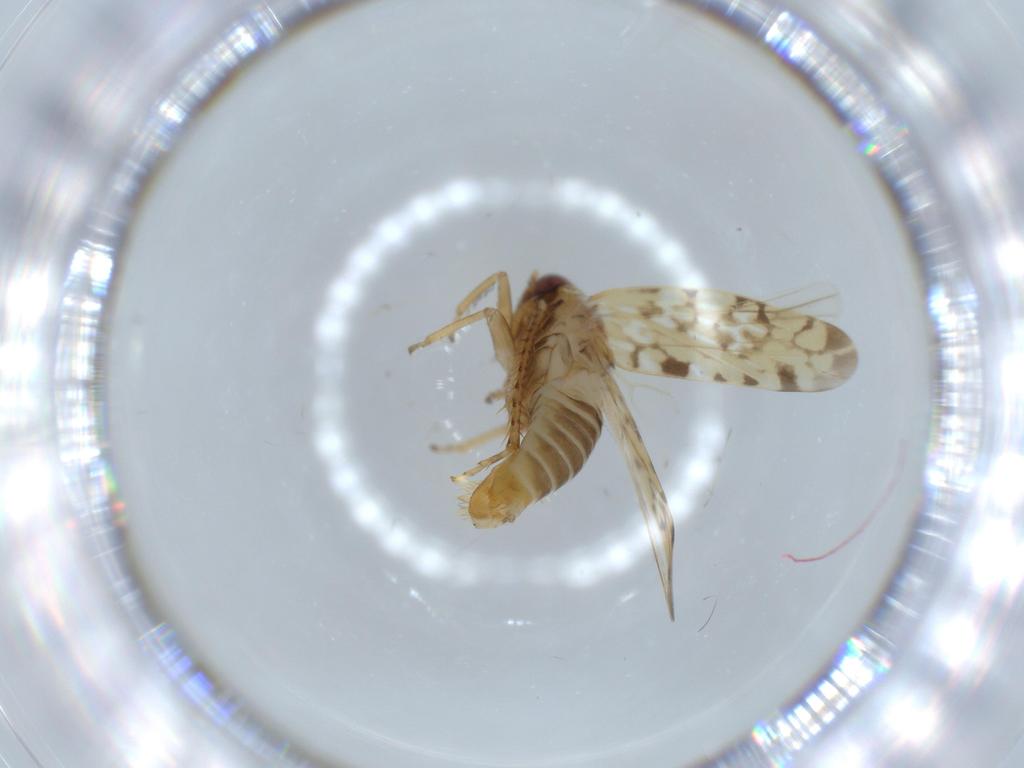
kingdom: Animalia
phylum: Arthropoda
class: Insecta
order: Hemiptera
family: Cicadellidae
